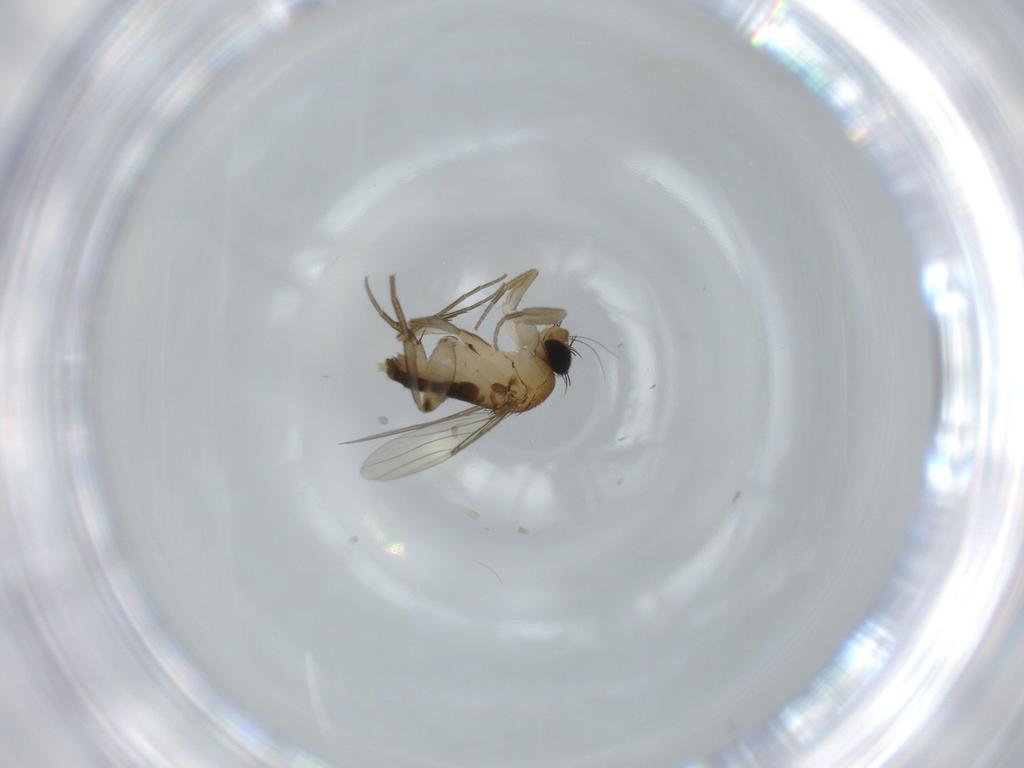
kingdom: Animalia
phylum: Arthropoda
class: Insecta
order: Diptera
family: Phoridae
